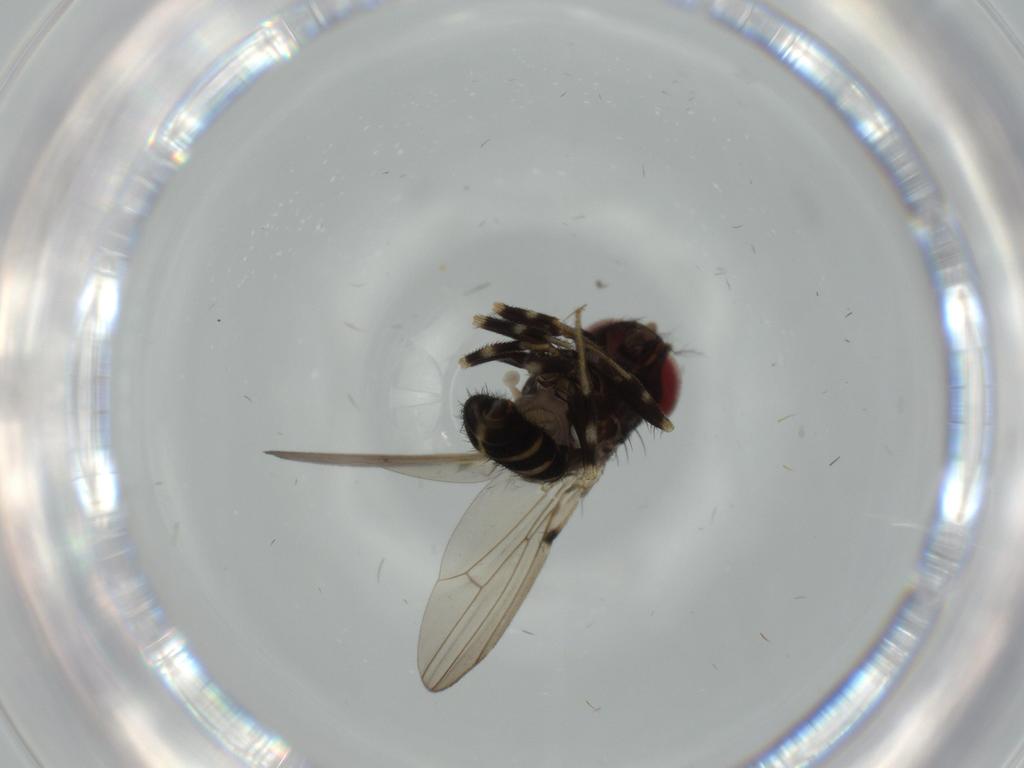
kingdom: Animalia
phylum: Arthropoda
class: Insecta
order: Diptera
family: Drosophilidae
